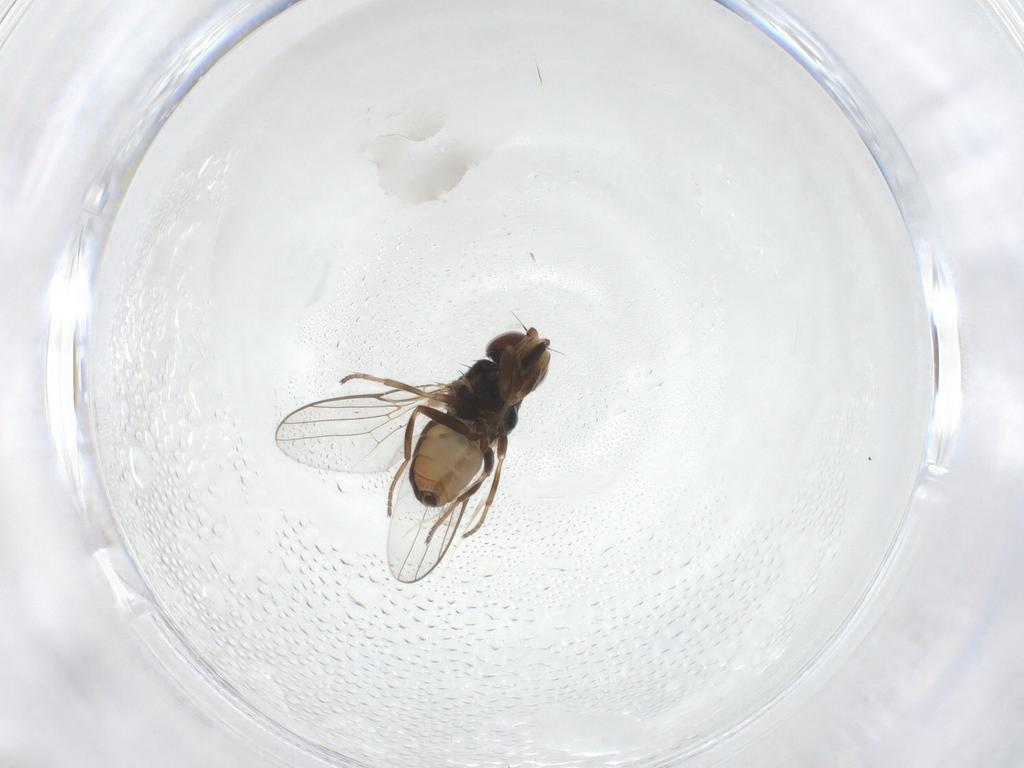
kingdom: Animalia
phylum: Arthropoda
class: Insecta
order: Diptera
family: Chloropidae
